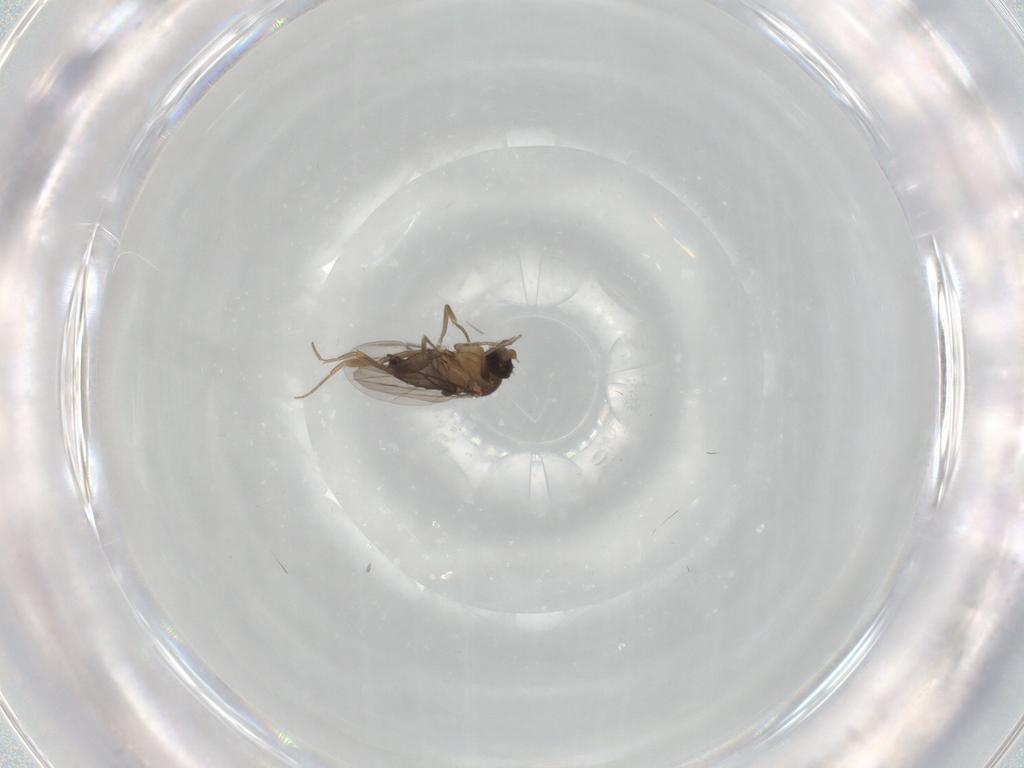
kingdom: Animalia
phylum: Arthropoda
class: Insecta
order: Diptera
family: Phoridae
